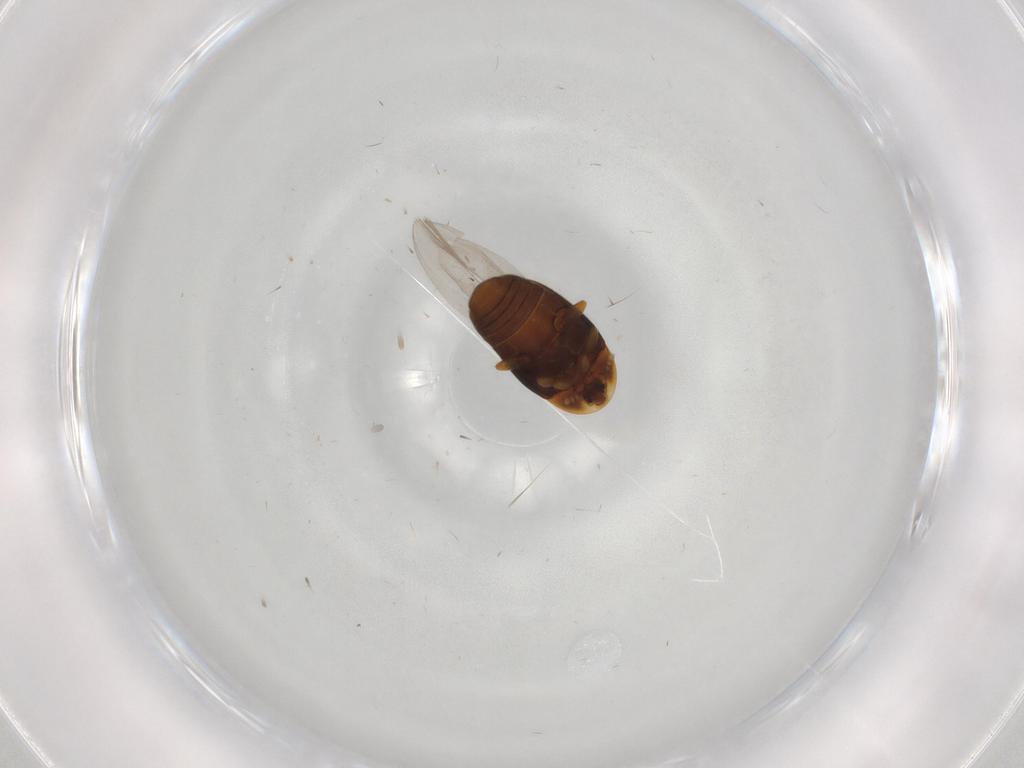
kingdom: Animalia
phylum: Arthropoda
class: Insecta
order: Coleoptera
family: Corylophidae
